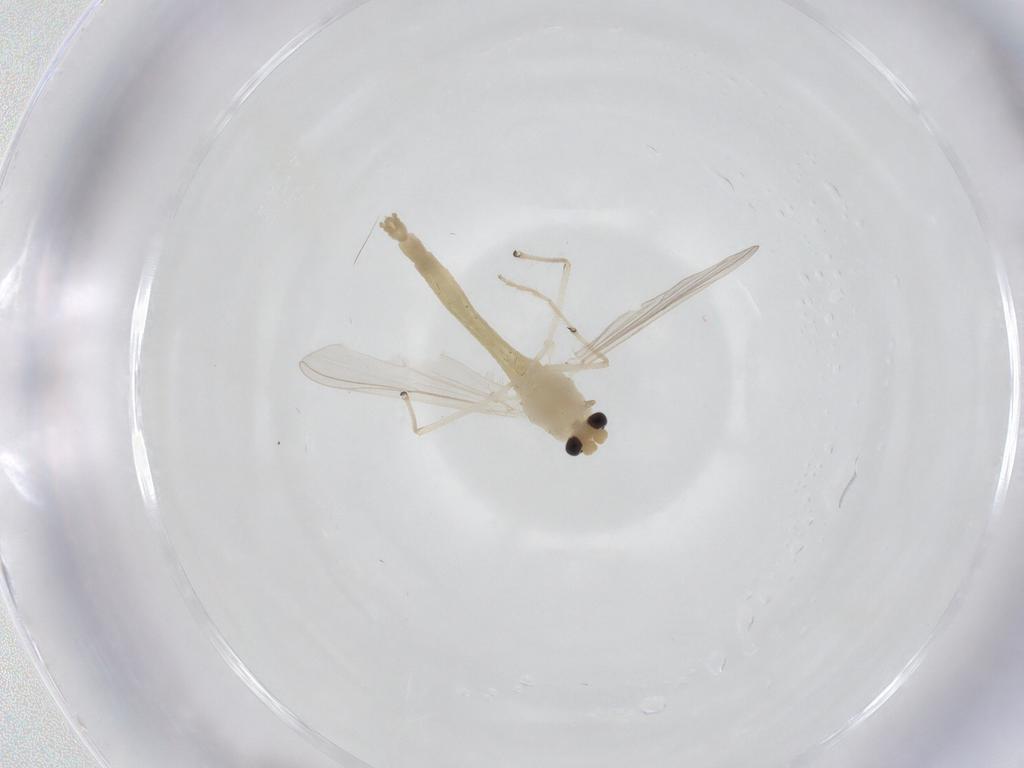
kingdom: Animalia
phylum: Arthropoda
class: Insecta
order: Diptera
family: Chironomidae
